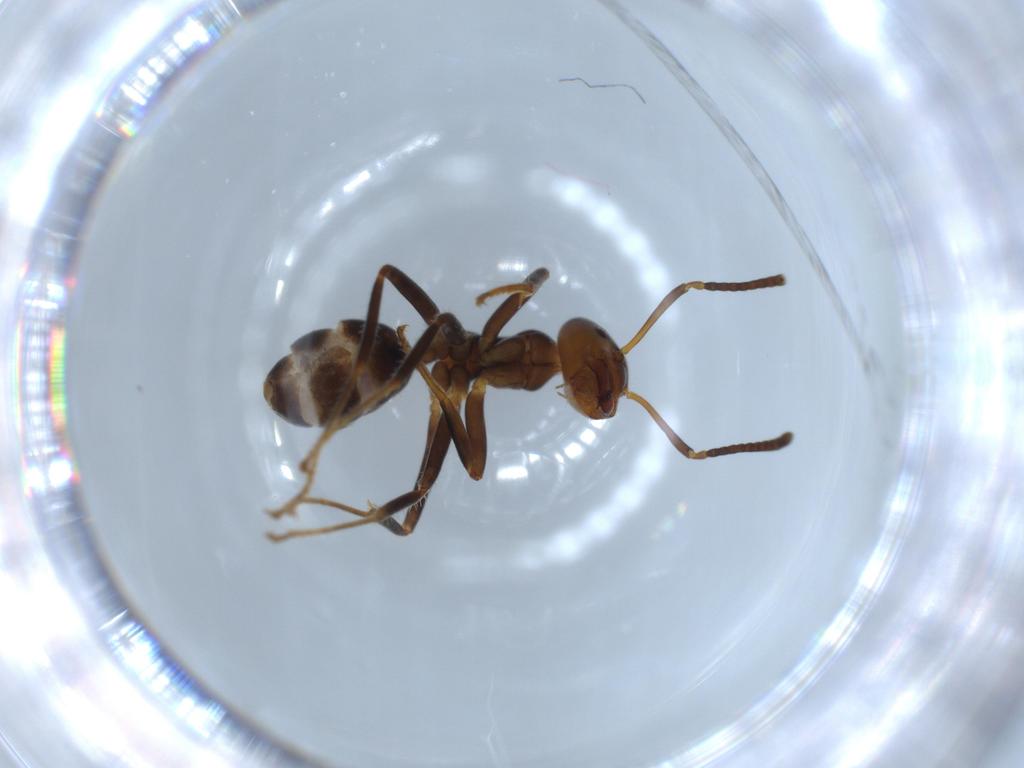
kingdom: Animalia
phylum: Arthropoda
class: Insecta
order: Hymenoptera
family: Formicidae
